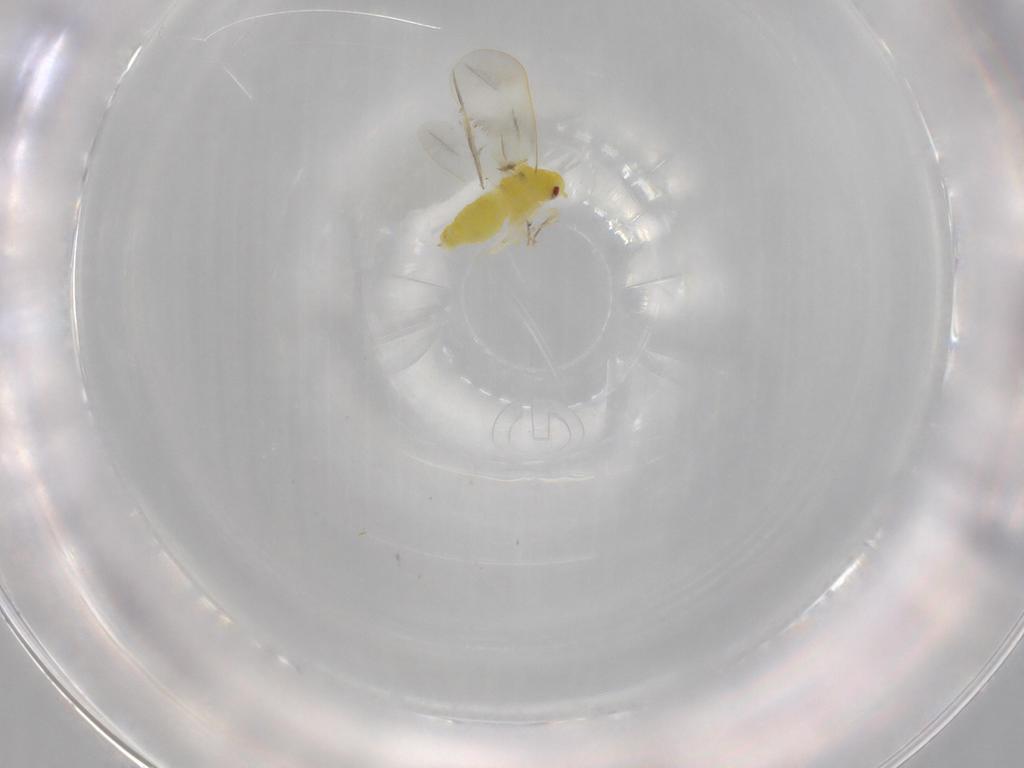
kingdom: Animalia
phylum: Arthropoda
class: Insecta
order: Hemiptera
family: Aleyrodidae
